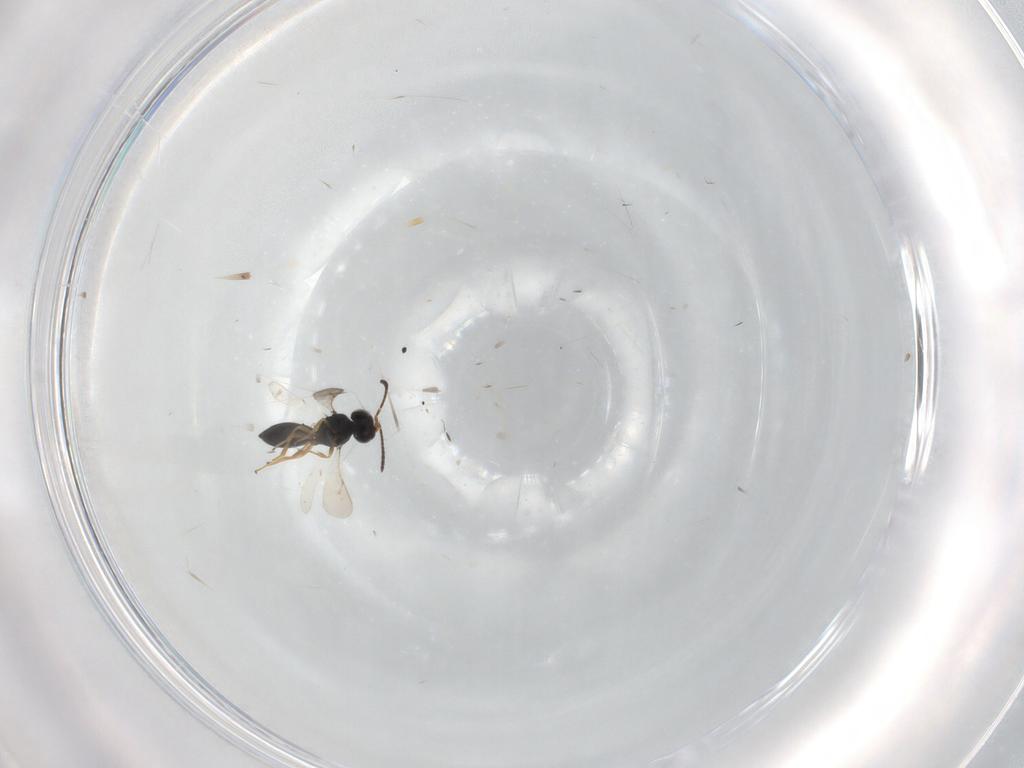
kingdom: Animalia
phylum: Arthropoda
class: Insecta
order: Hymenoptera
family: Scelionidae
